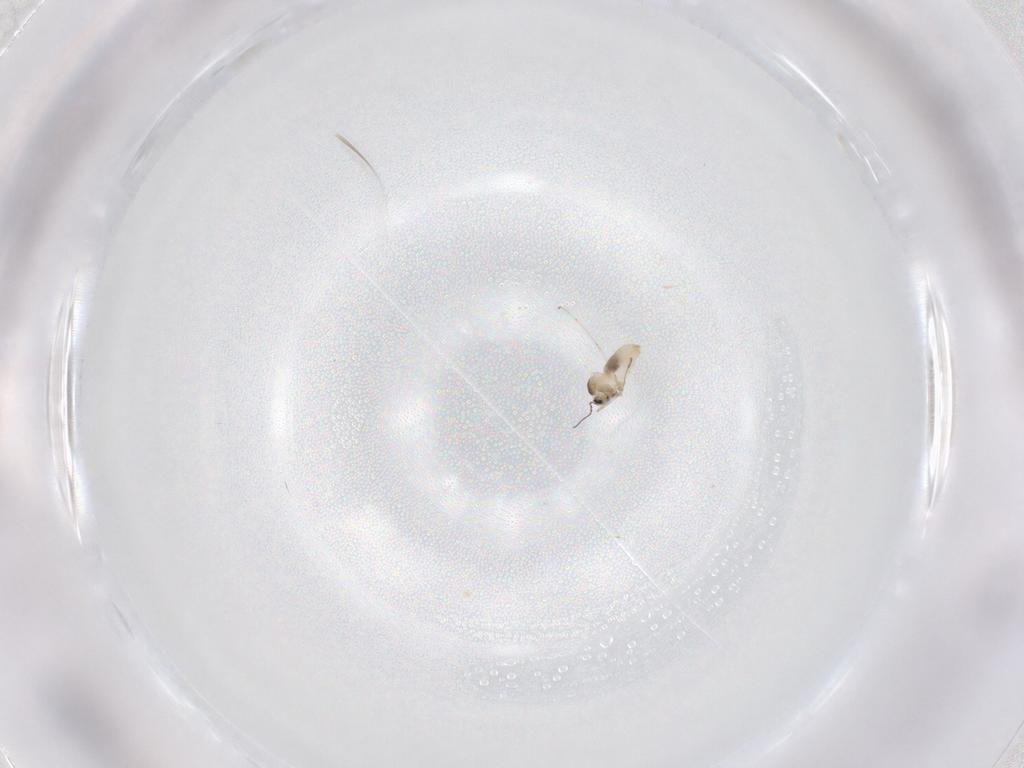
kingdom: Animalia
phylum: Arthropoda
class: Insecta
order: Diptera
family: Cecidomyiidae
